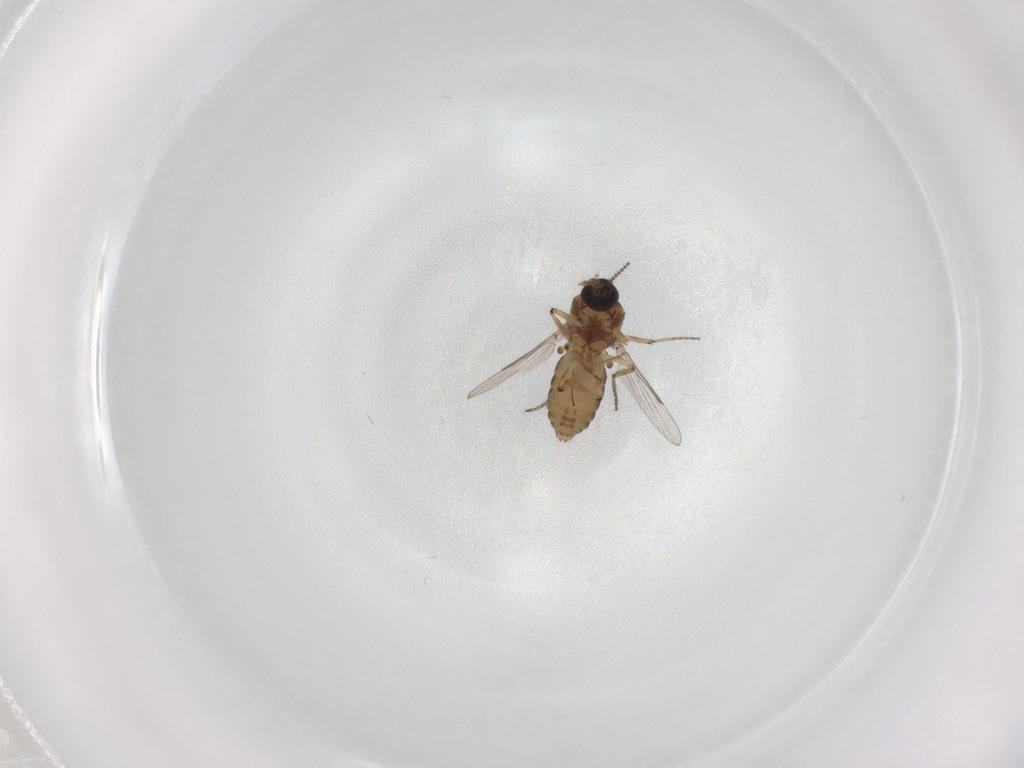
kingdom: Animalia
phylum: Arthropoda
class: Insecta
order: Diptera
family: Ceratopogonidae
